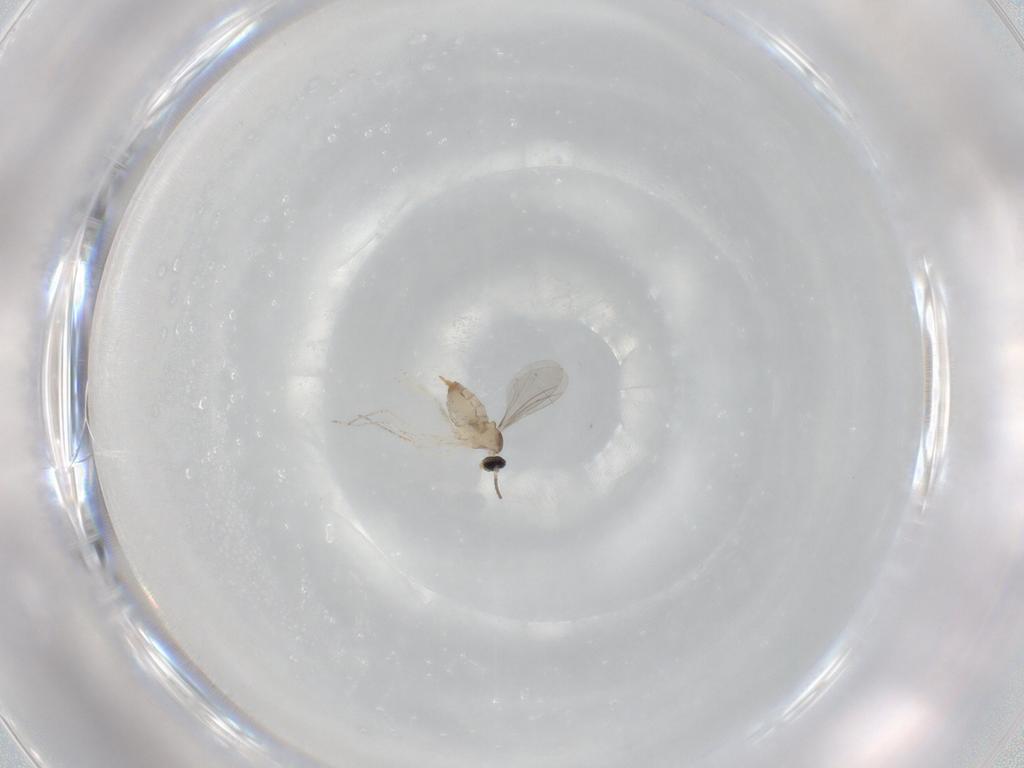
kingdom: Animalia
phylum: Arthropoda
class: Insecta
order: Diptera
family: Cecidomyiidae
